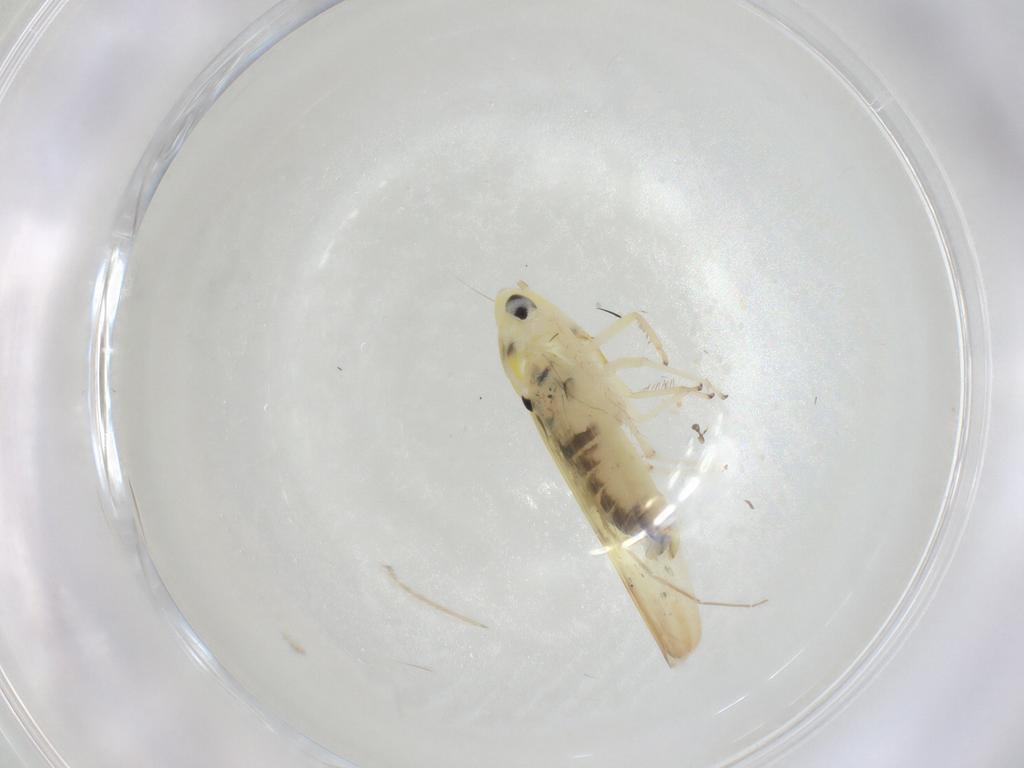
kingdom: Animalia
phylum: Arthropoda
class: Insecta
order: Hemiptera
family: Cicadellidae
